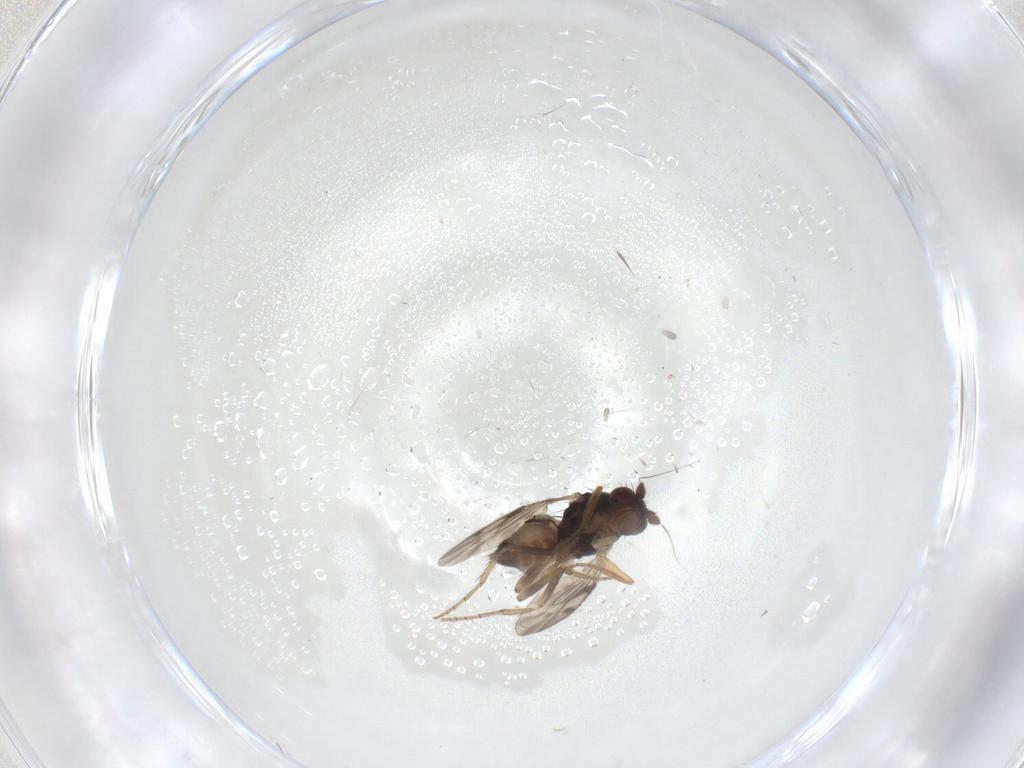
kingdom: Animalia
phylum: Arthropoda
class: Insecta
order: Diptera
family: Sphaeroceridae
